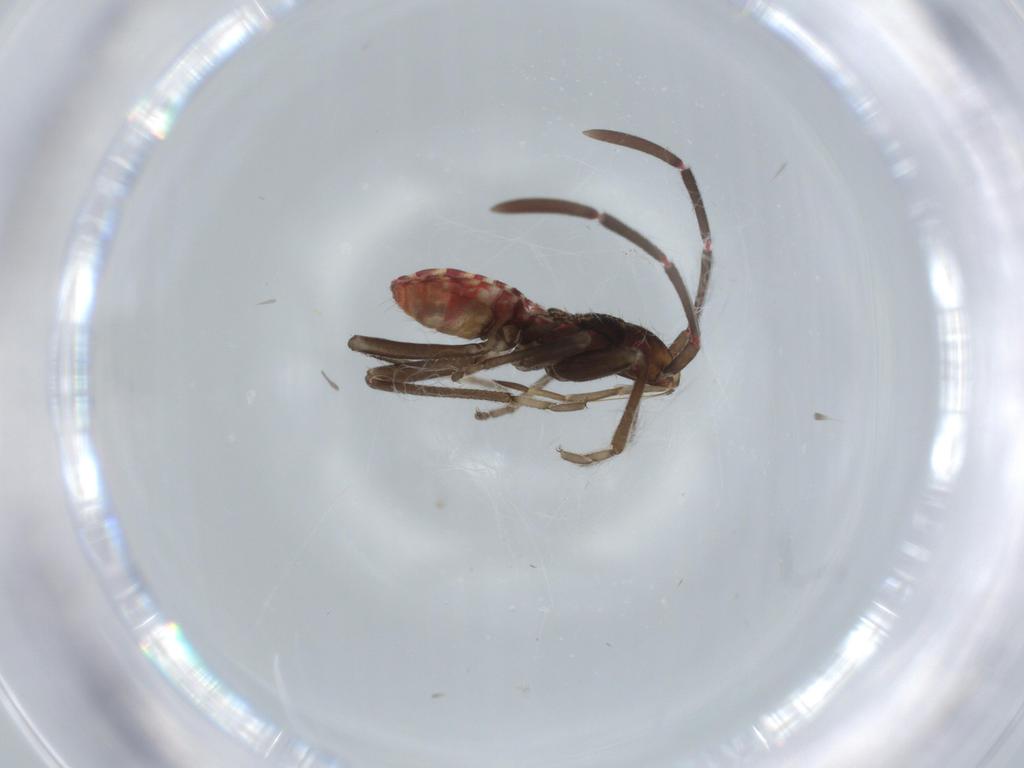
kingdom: Animalia
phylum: Arthropoda
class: Insecta
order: Hemiptera
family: Rhyparochromidae
